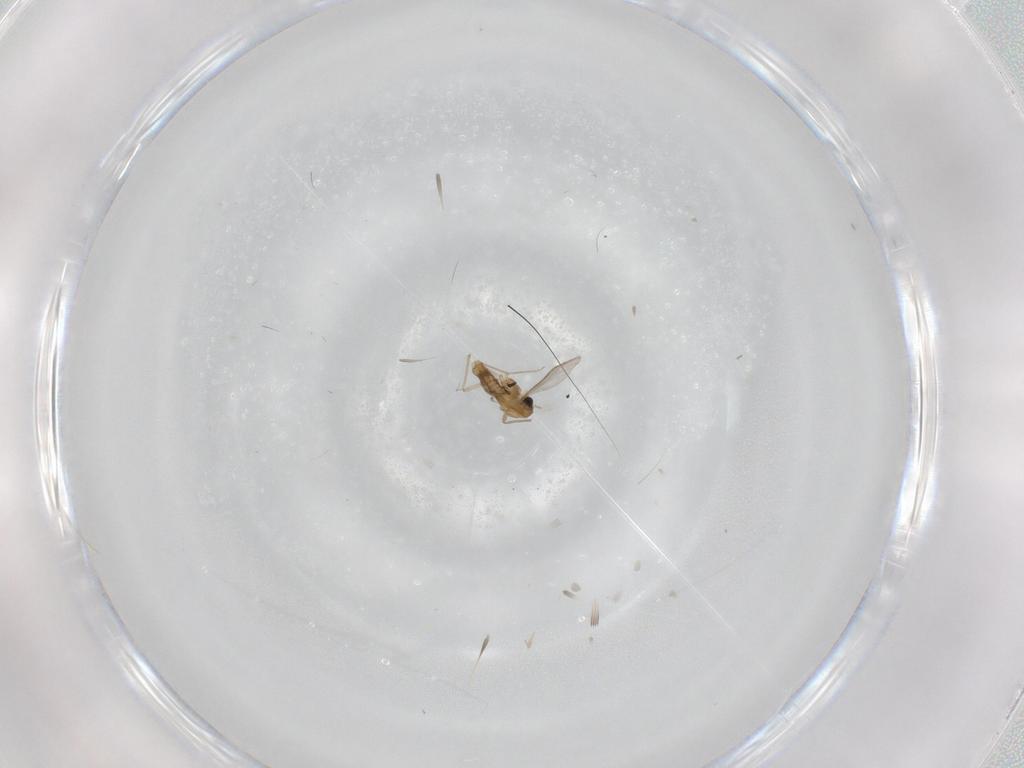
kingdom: Animalia
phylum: Arthropoda
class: Insecta
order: Diptera
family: Chironomidae
